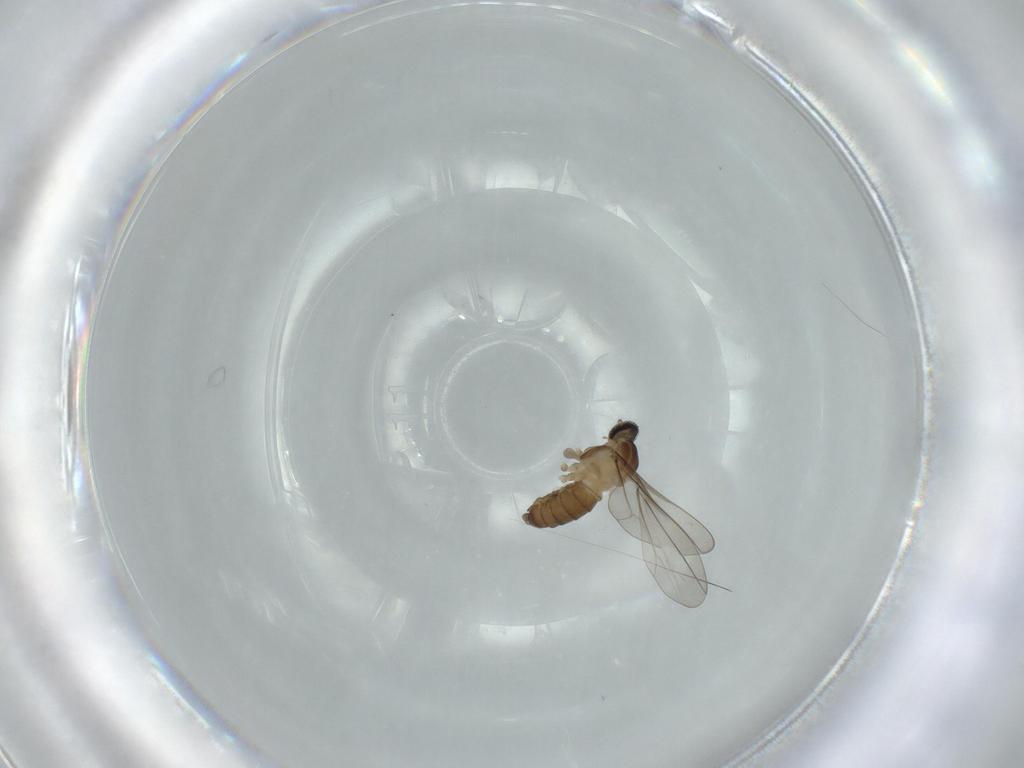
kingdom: Animalia
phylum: Arthropoda
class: Insecta
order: Diptera
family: Cecidomyiidae
